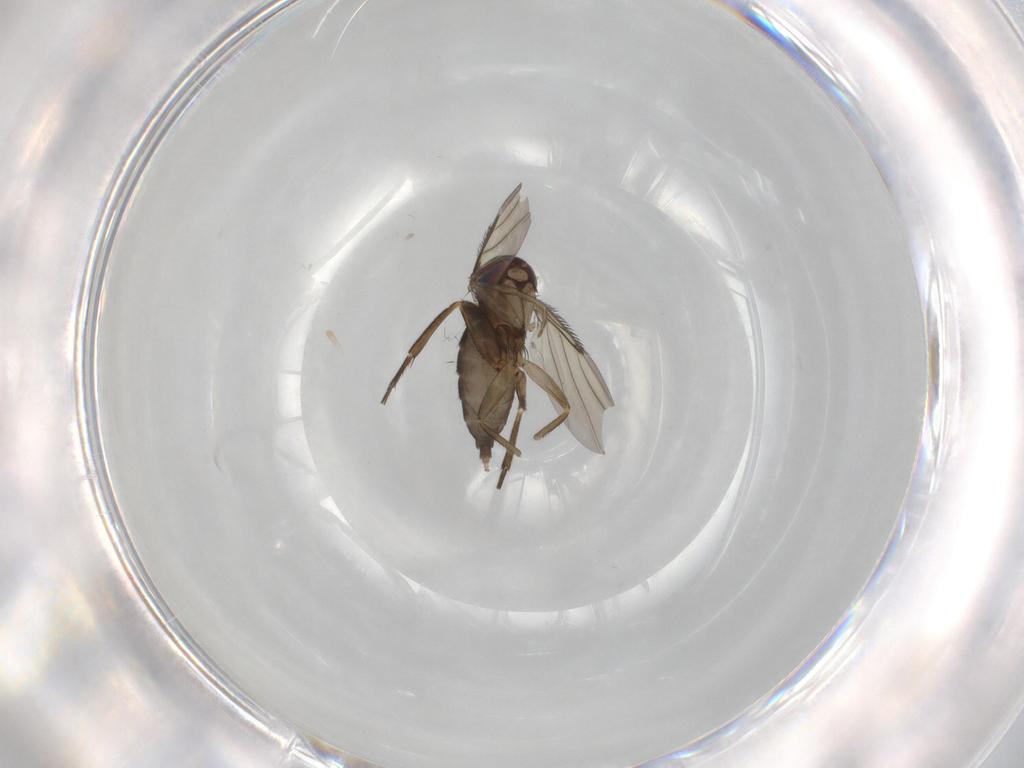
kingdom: Animalia
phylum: Arthropoda
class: Insecta
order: Diptera
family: Phoridae
